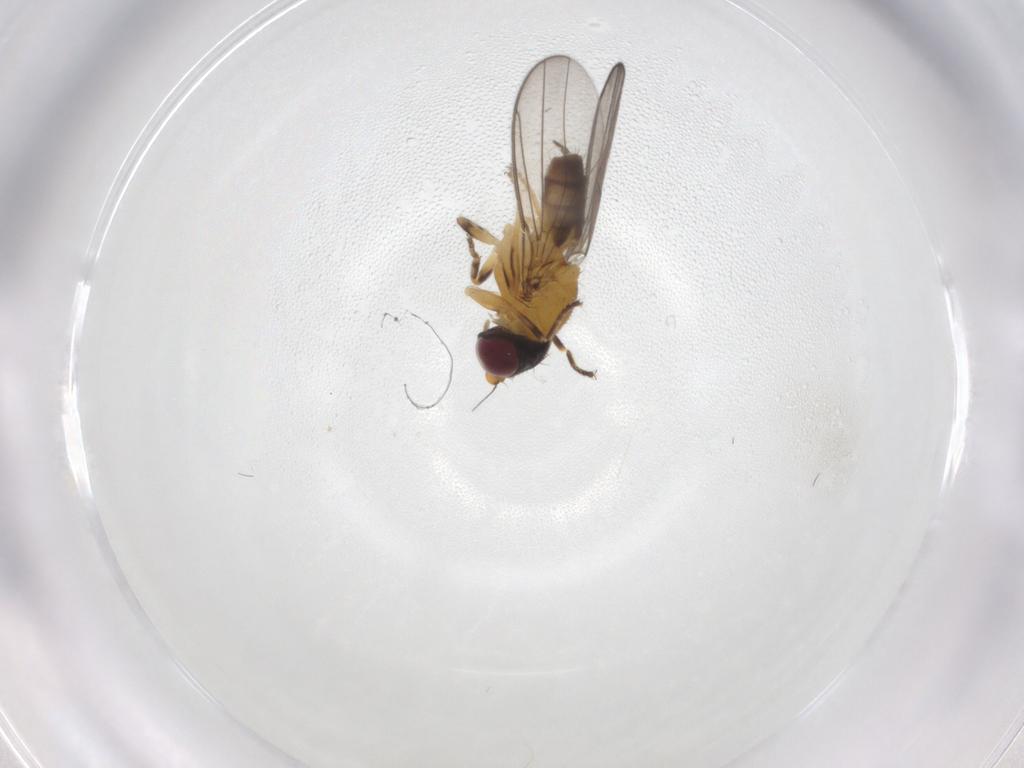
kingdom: Animalia
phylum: Arthropoda
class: Insecta
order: Diptera
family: Chloropidae
